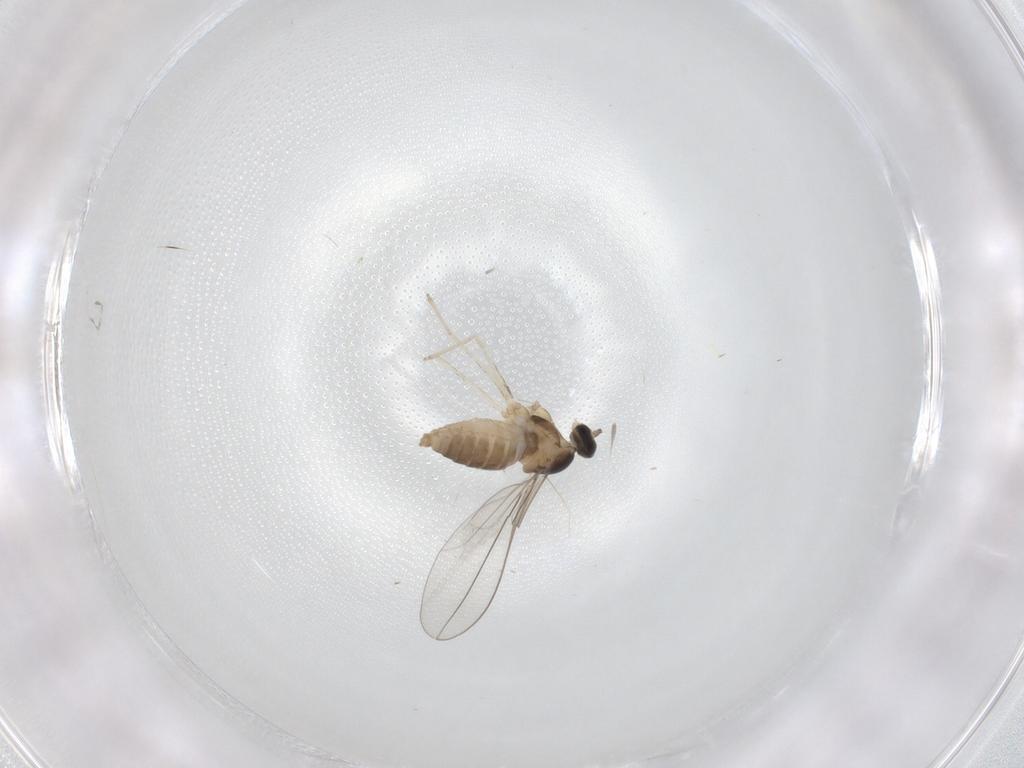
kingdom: Animalia
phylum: Arthropoda
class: Insecta
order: Diptera
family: Cecidomyiidae
